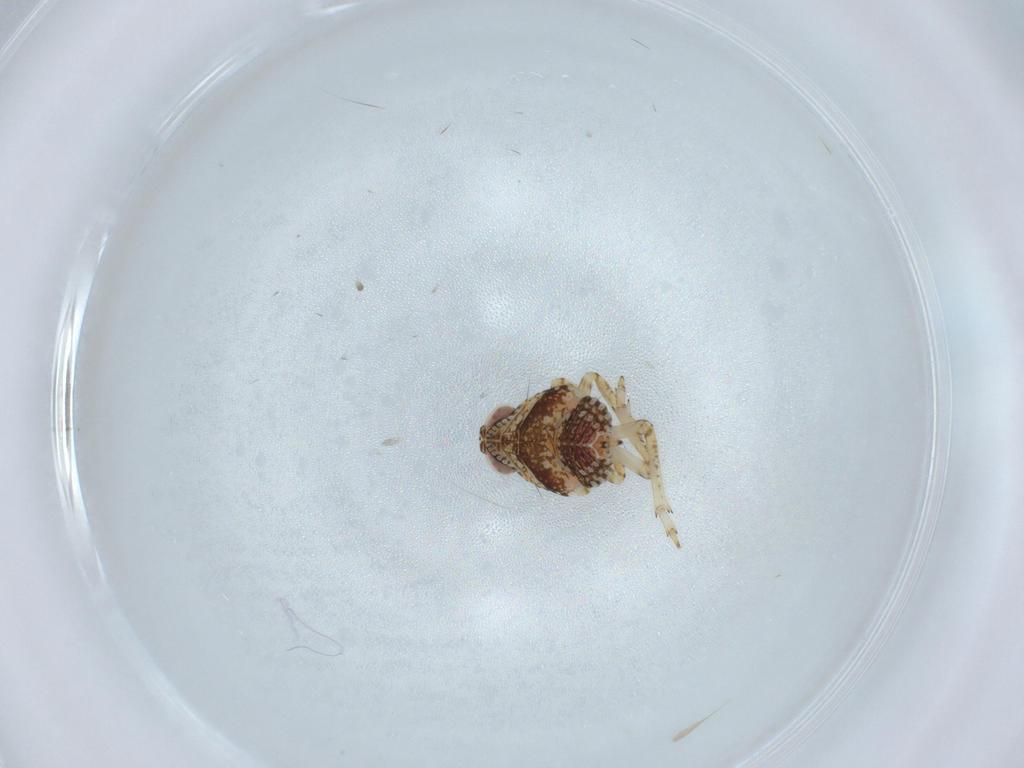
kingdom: Animalia
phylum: Arthropoda
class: Insecta
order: Hemiptera
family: Issidae
